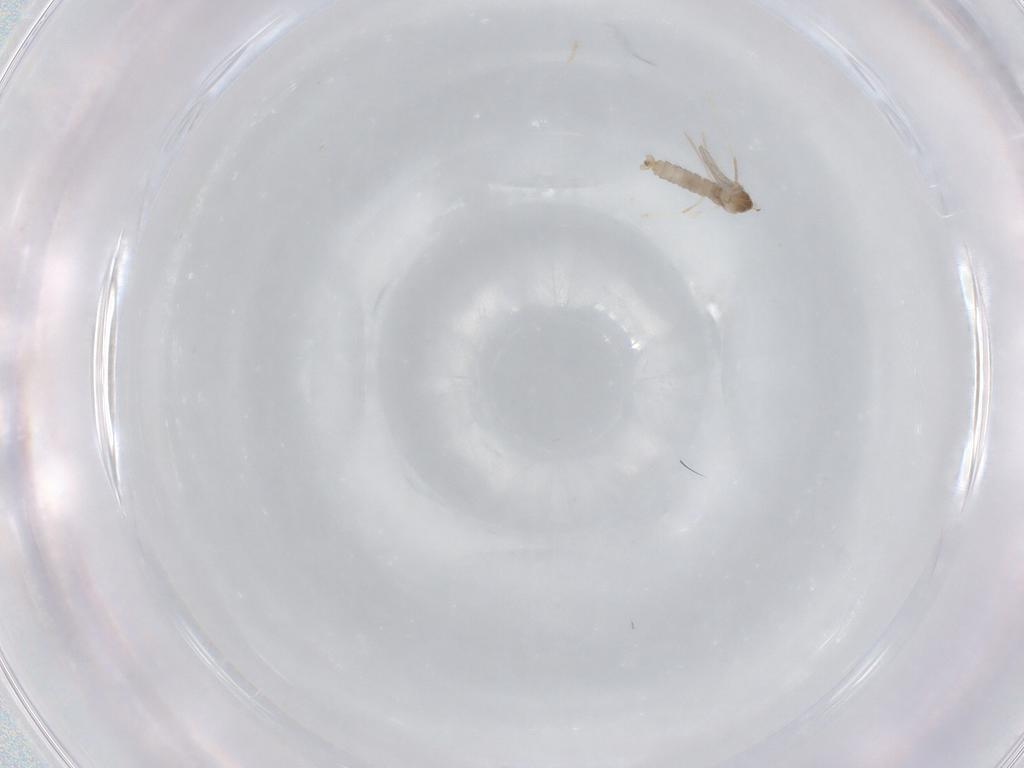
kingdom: Animalia
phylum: Arthropoda
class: Insecta
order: Diptera
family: Cecidomyiidae
